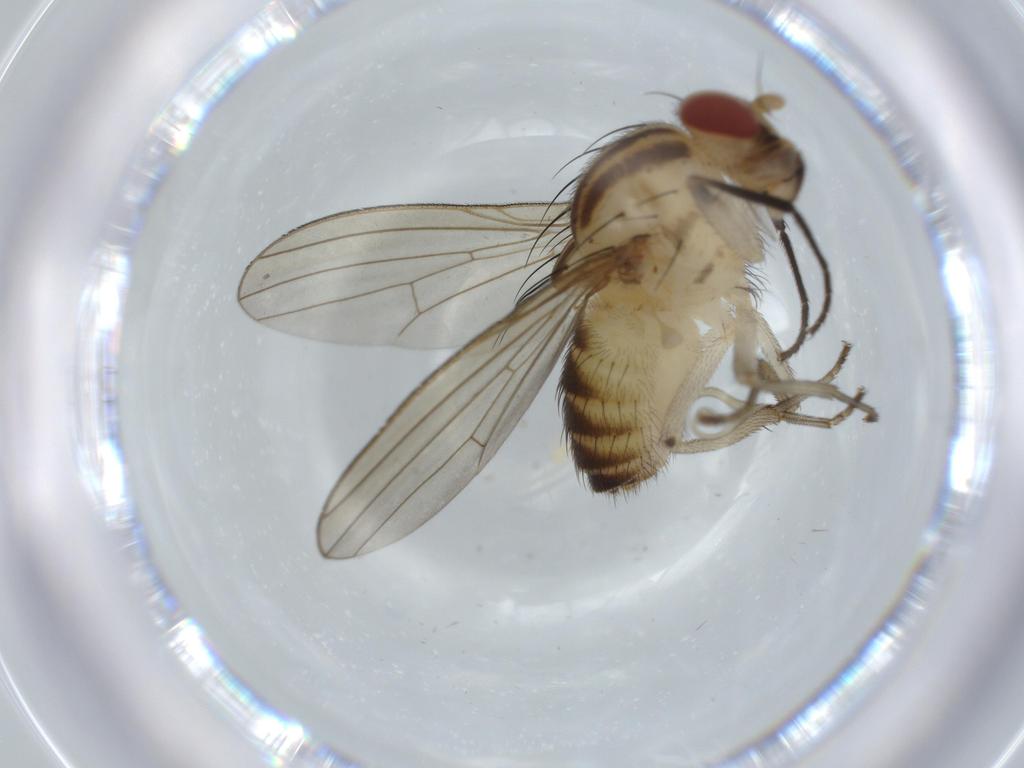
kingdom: Animalia
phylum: Arthropoda
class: Insecta
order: Diptera
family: Chironomidae
